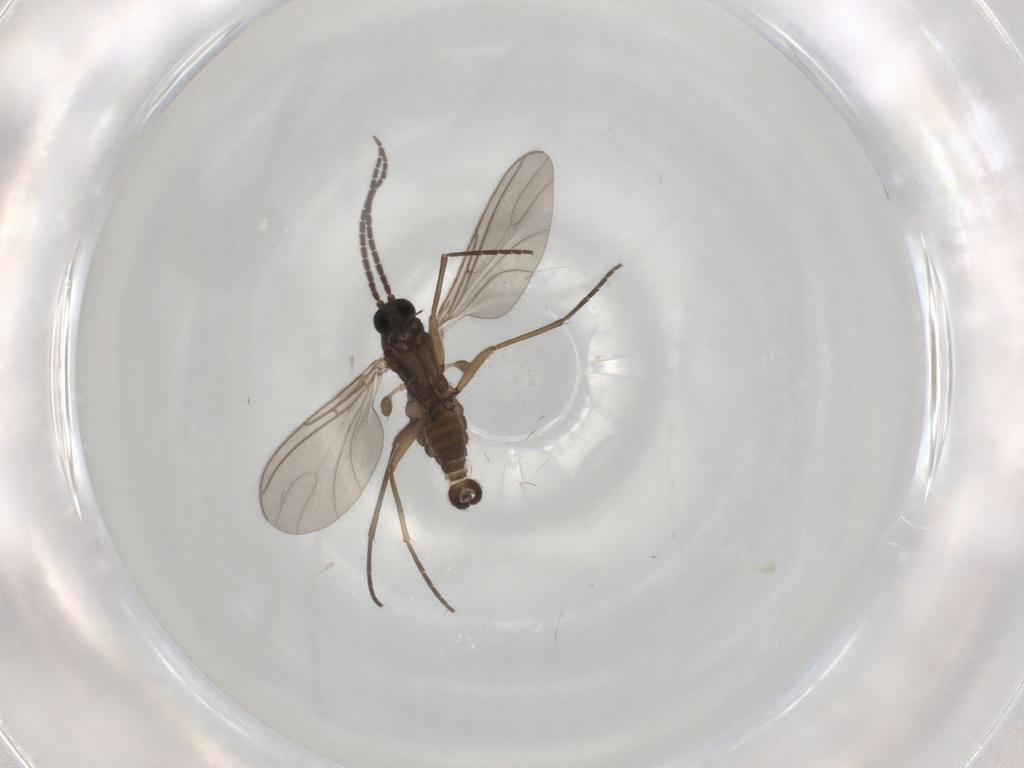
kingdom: Animalia
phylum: Arthropoda
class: Insecta
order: Diptera
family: Sciaridae
